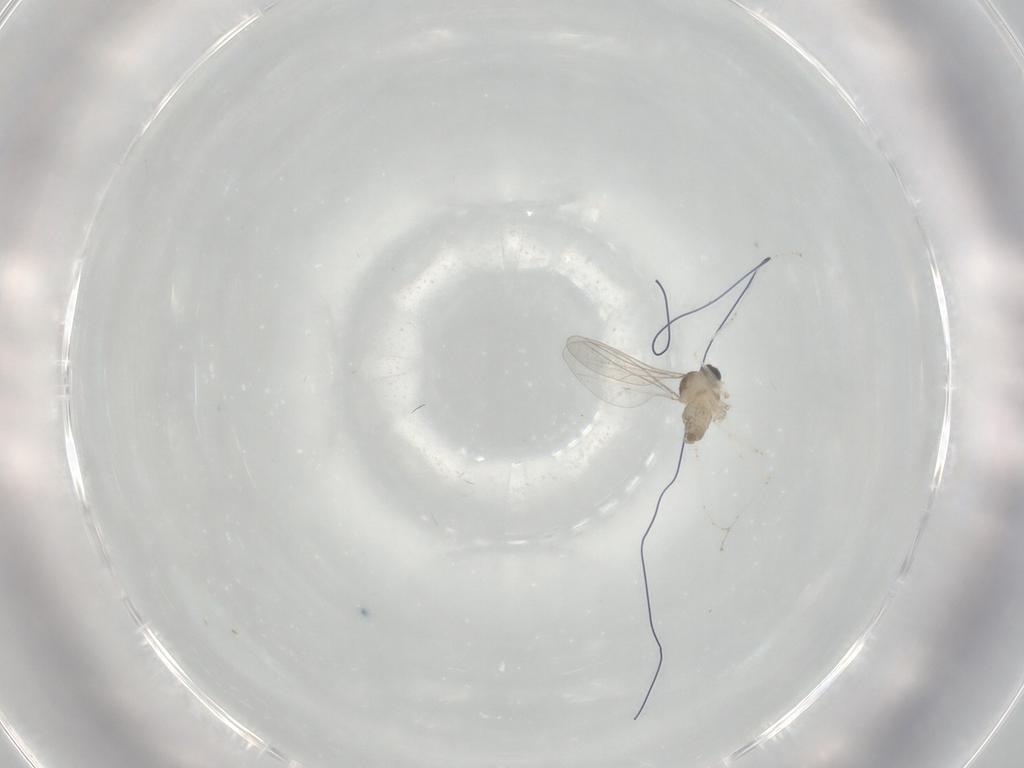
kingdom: Animalia
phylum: Arthropoda
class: Insecta
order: Diptera
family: Cecidomyiidae
